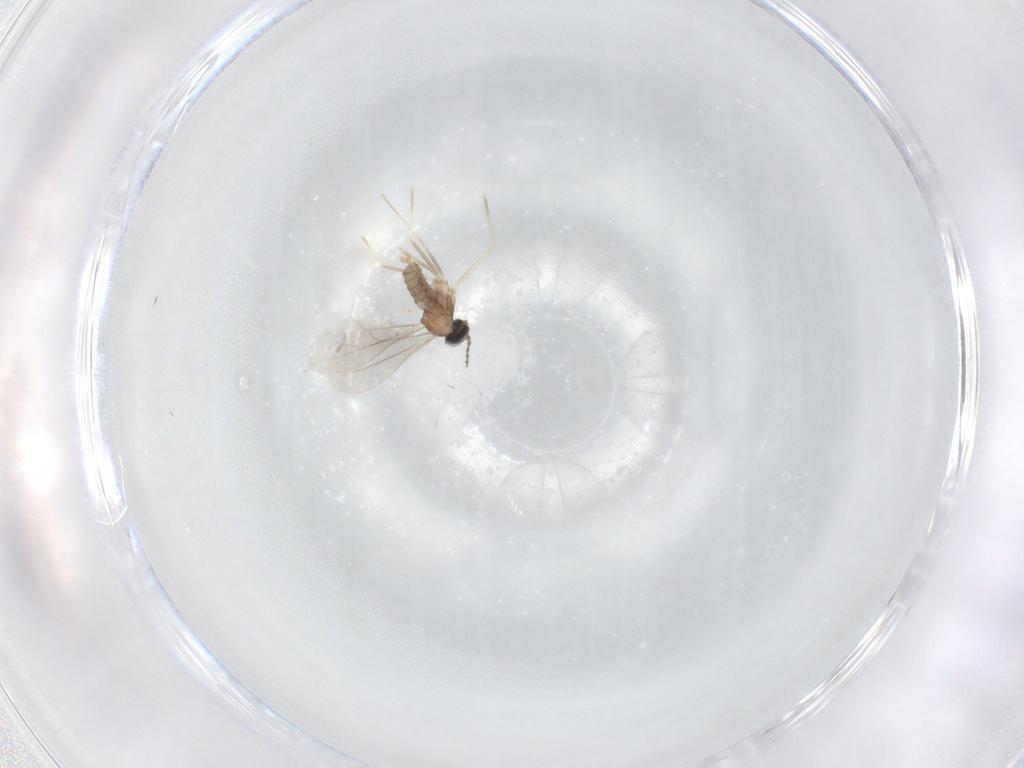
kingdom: Animalia
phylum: Arthropoda
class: Insecta
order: Diptera
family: Cecidomyiidae
